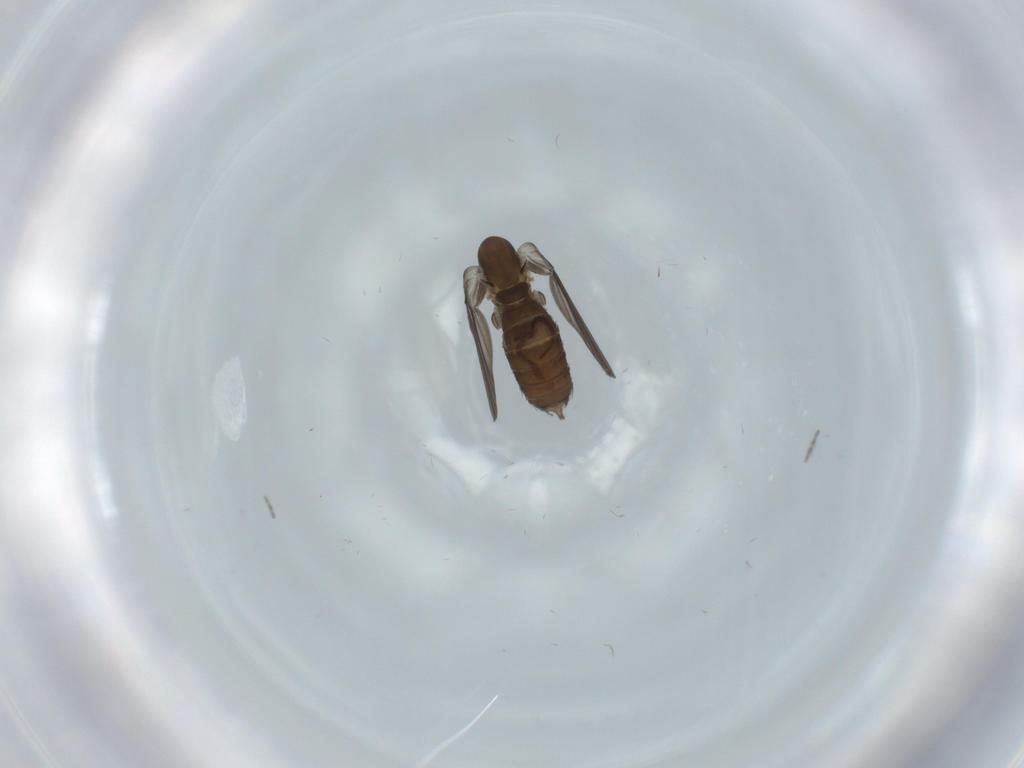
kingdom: Animalia
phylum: Arthropoda
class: Insecta
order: Diptera
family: Psychodidae
